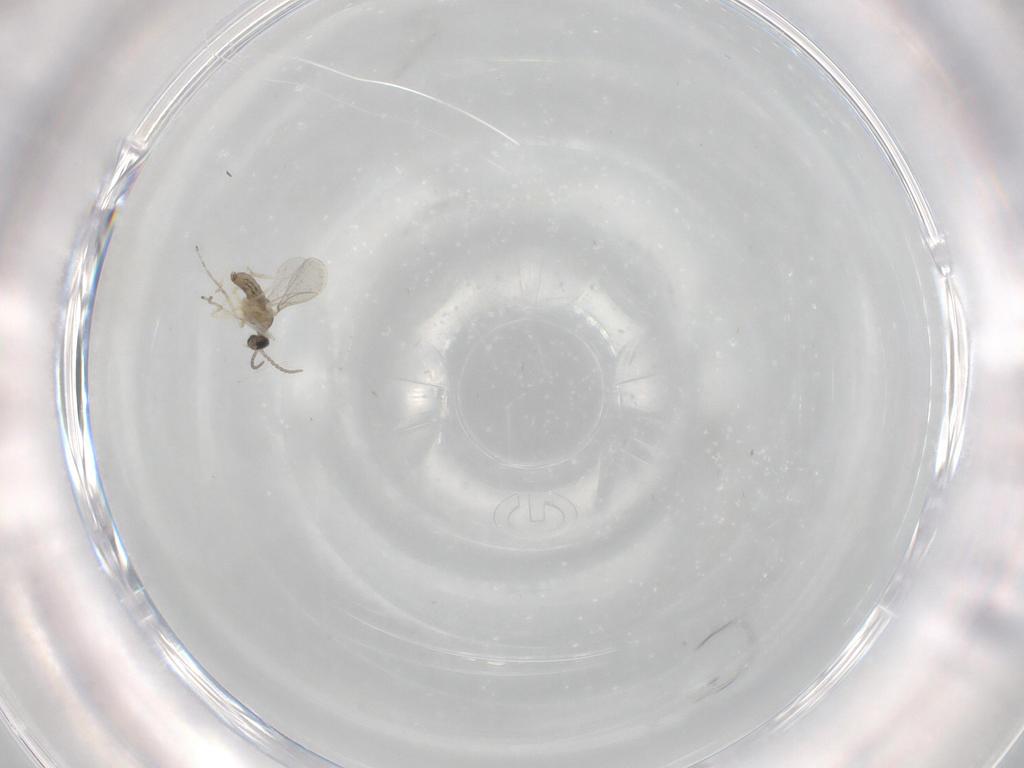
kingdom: Animalia
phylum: Arthropoda
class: Insecta
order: Diptera
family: Cecidomyiidae
